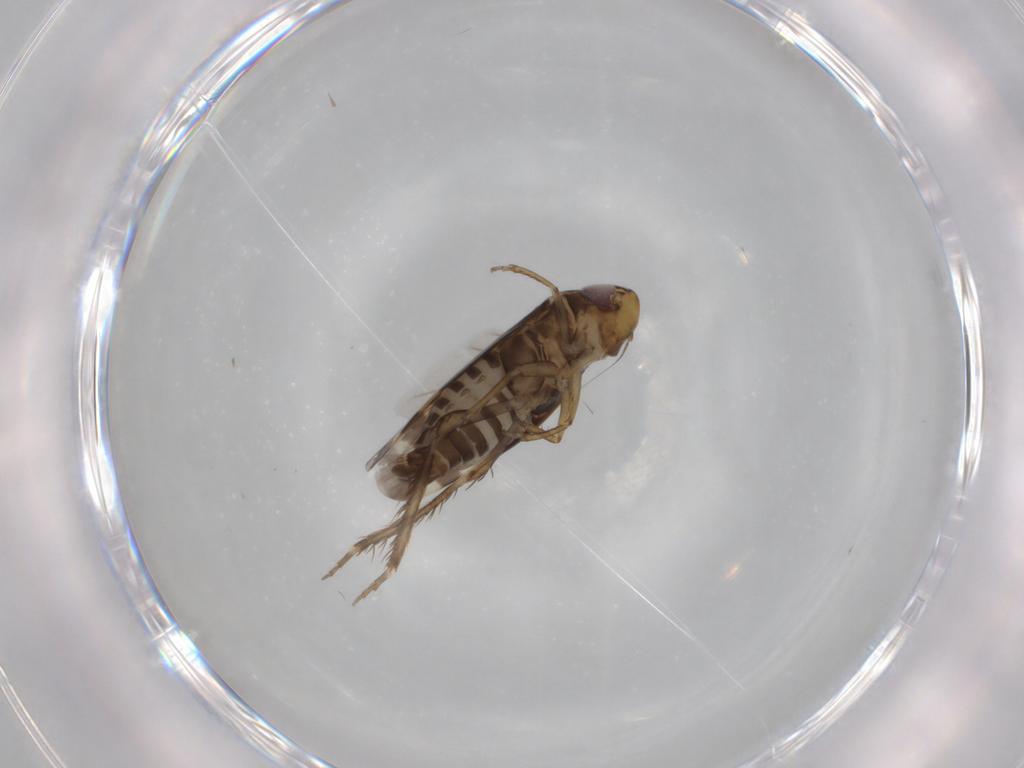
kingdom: Animalia
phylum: Arthropoda
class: Insecta
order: Hemiptera
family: Cicadellidae
